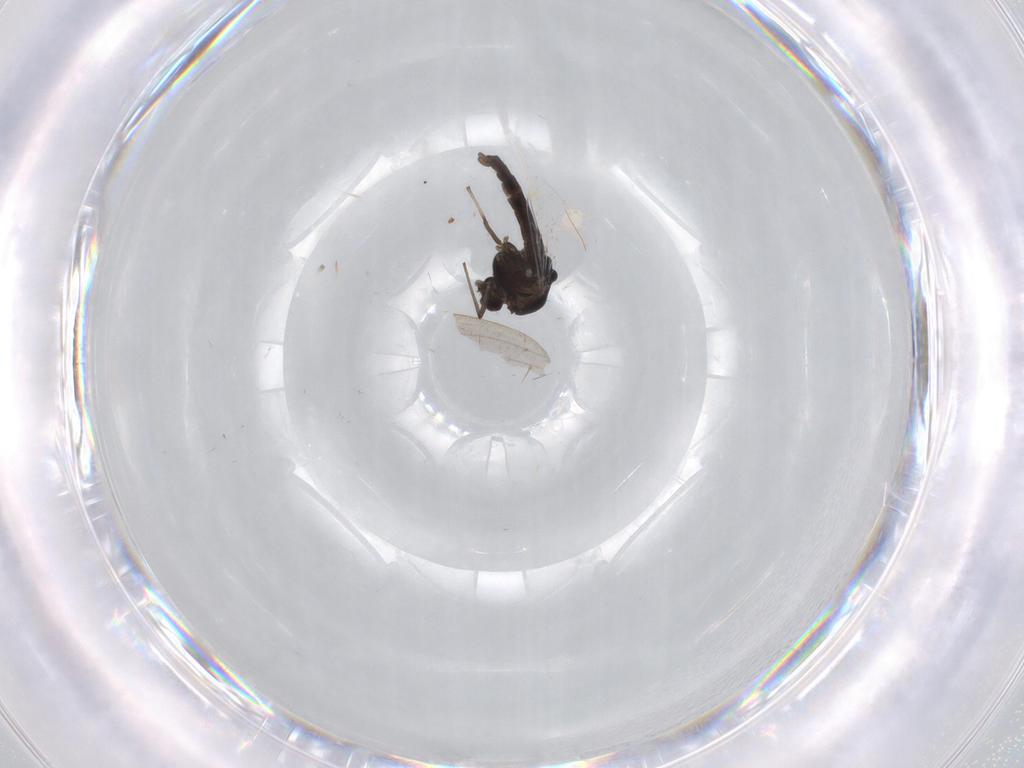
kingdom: Animalia
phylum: Arthropoda
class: Insecta
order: Diptera
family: Chironomidae
